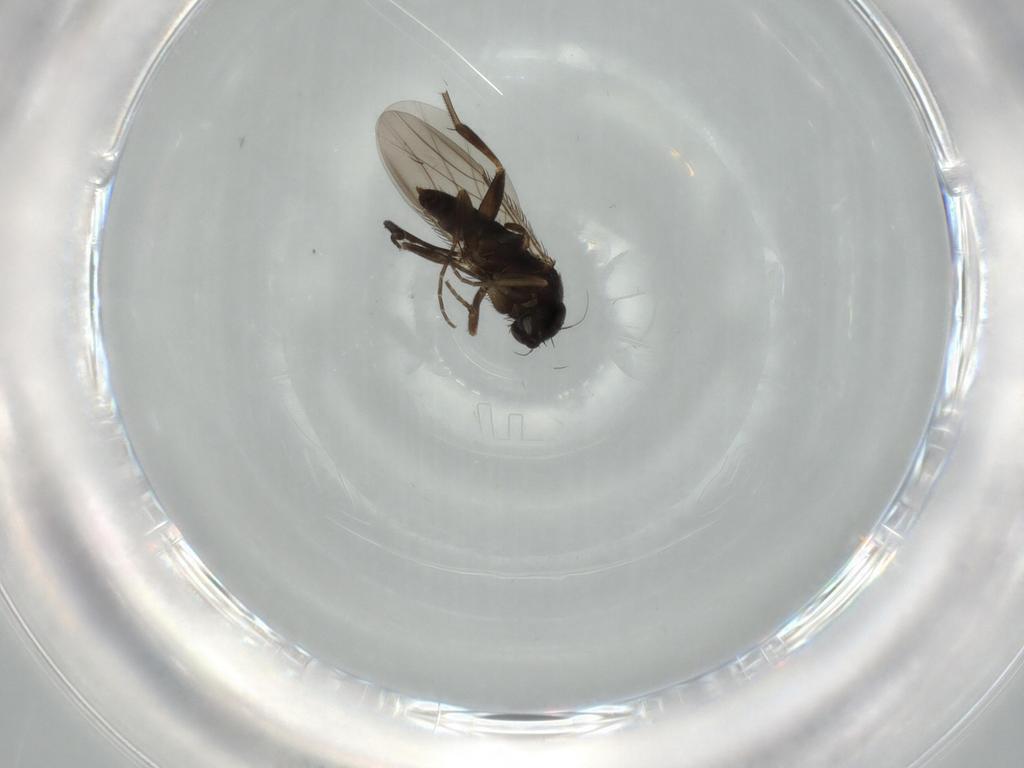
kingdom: Animalia
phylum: Arthropoda
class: Insecta
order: Diptera
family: Phoridae
